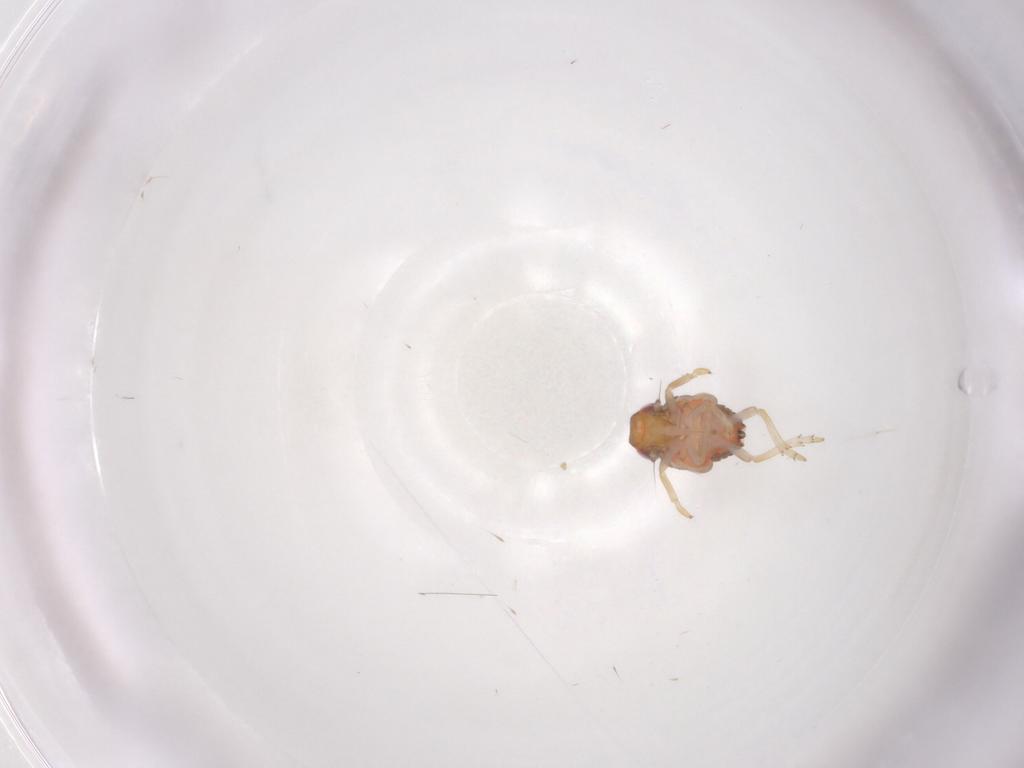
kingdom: Animalia
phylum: Arthropoda
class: Insecta
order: Hemiptera
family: Issidae
